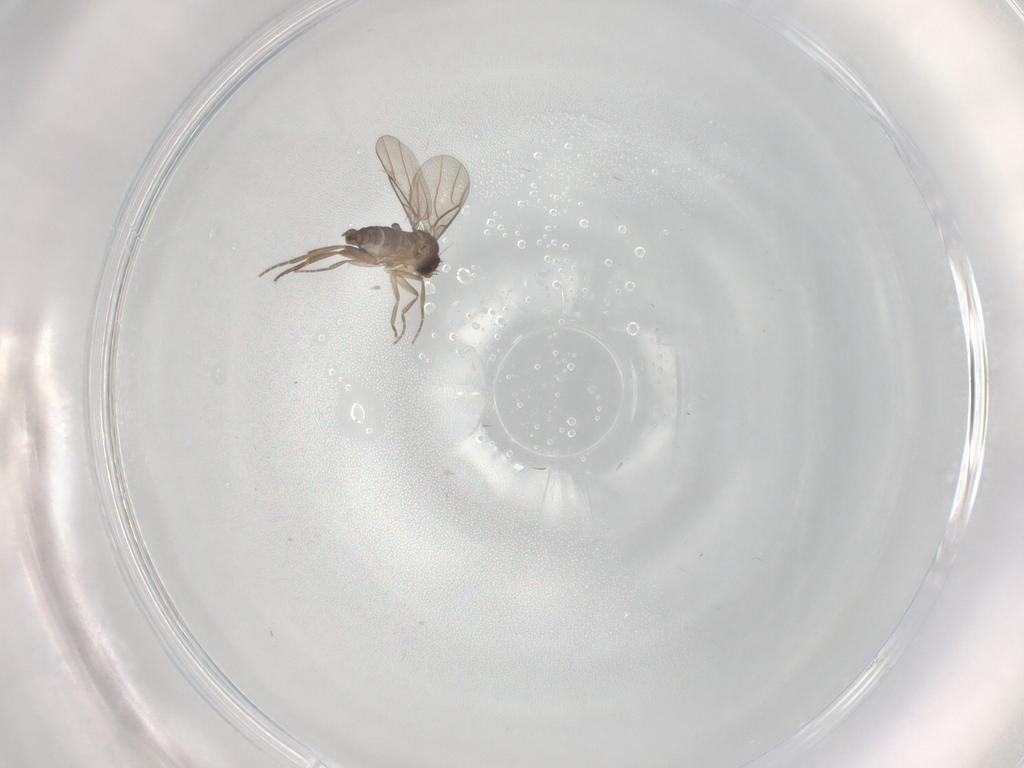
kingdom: Animalia
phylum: Arthropoda
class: Insecta
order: Diptera
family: Phoridae
